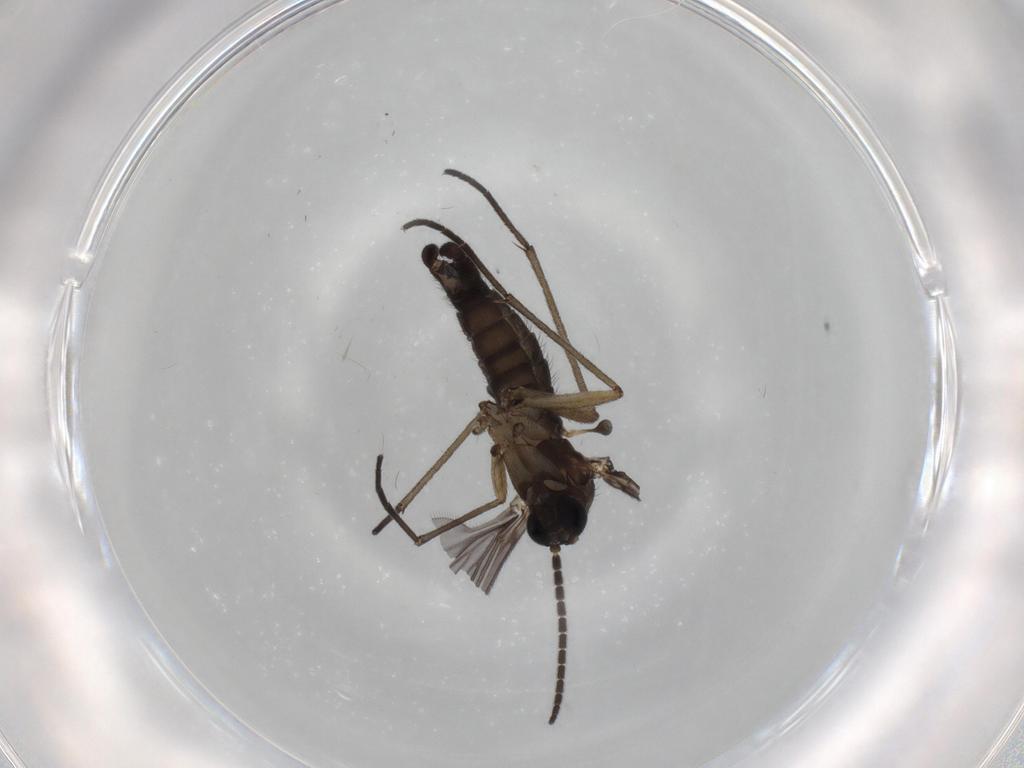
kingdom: Animalia
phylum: Arthropoda
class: Insecta
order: Diptera
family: Sciaridae
